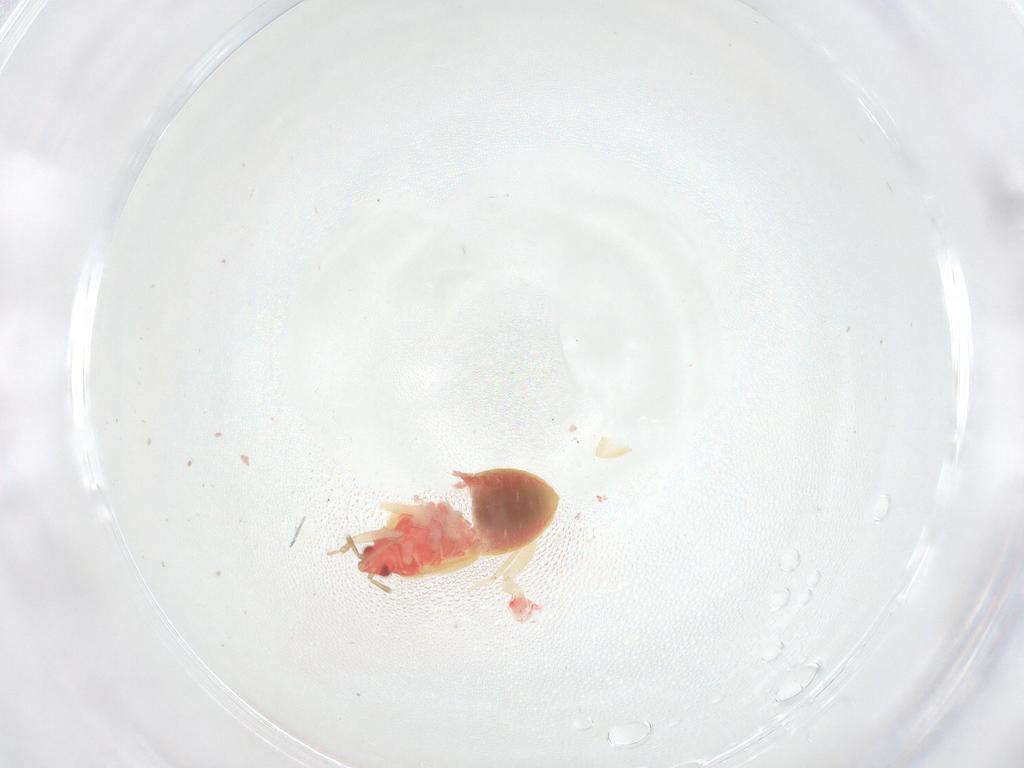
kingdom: Animalia
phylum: Arthropoda
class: Insecta
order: Hemiptera
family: Anthocoridae
